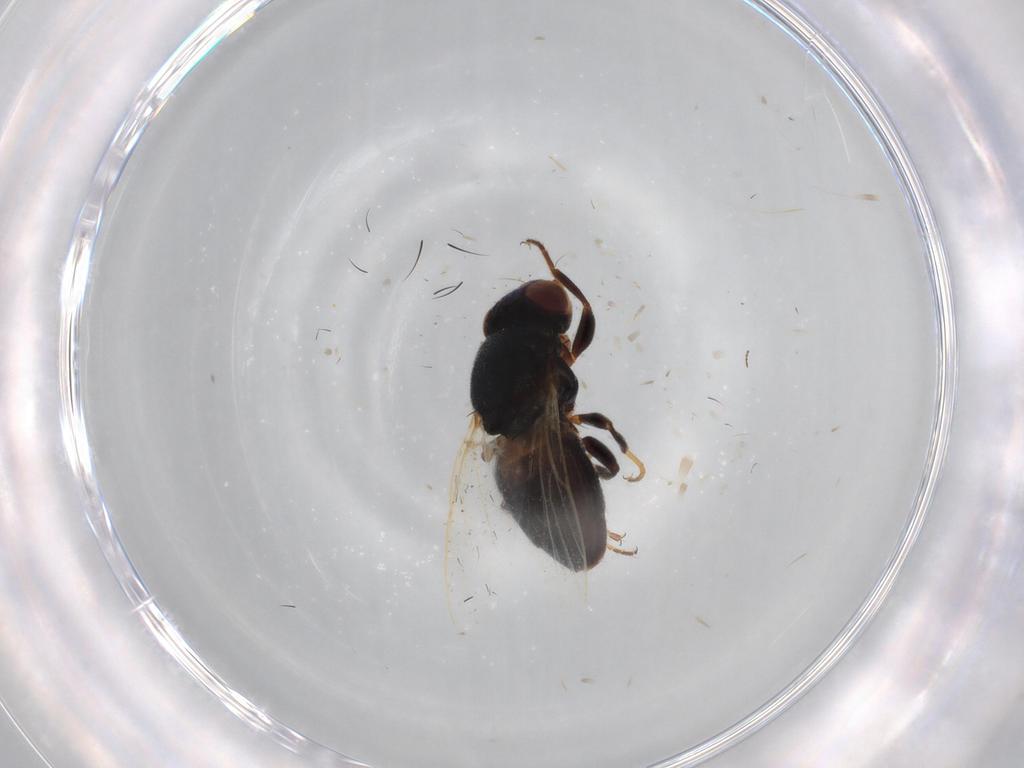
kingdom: Animalia
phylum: Arthropoda
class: Insecta
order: Diptera
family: Chloropidae
